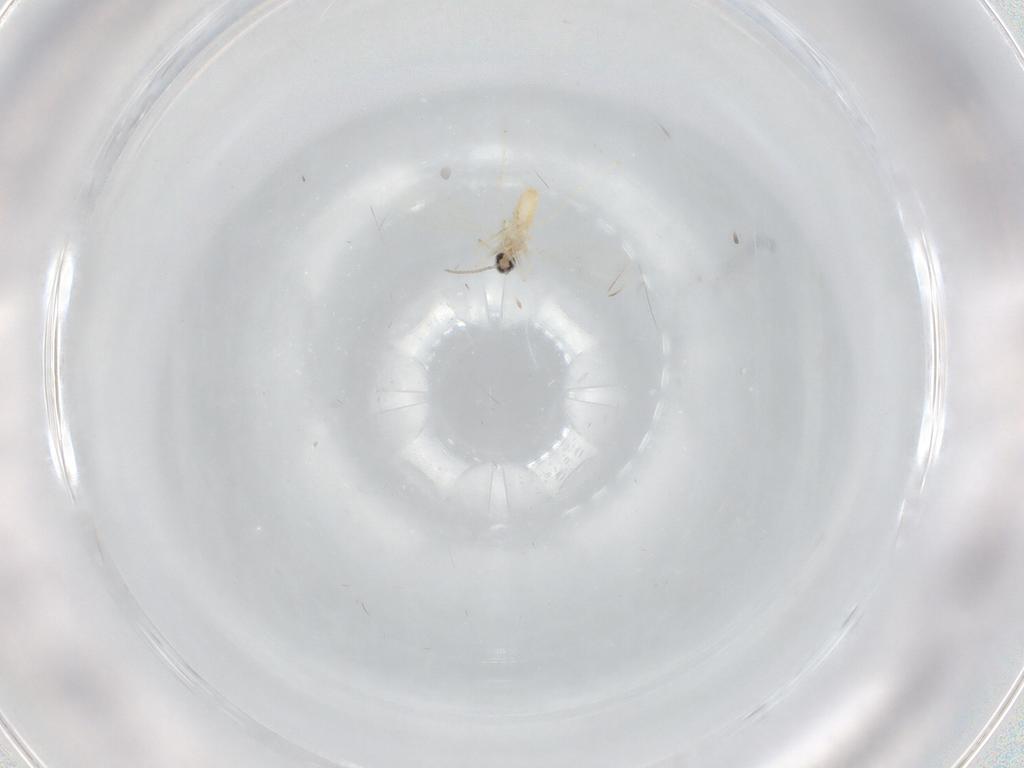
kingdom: Animalia
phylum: Arthropoda
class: Insecta
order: Diptera
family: Cecidomyiidae
